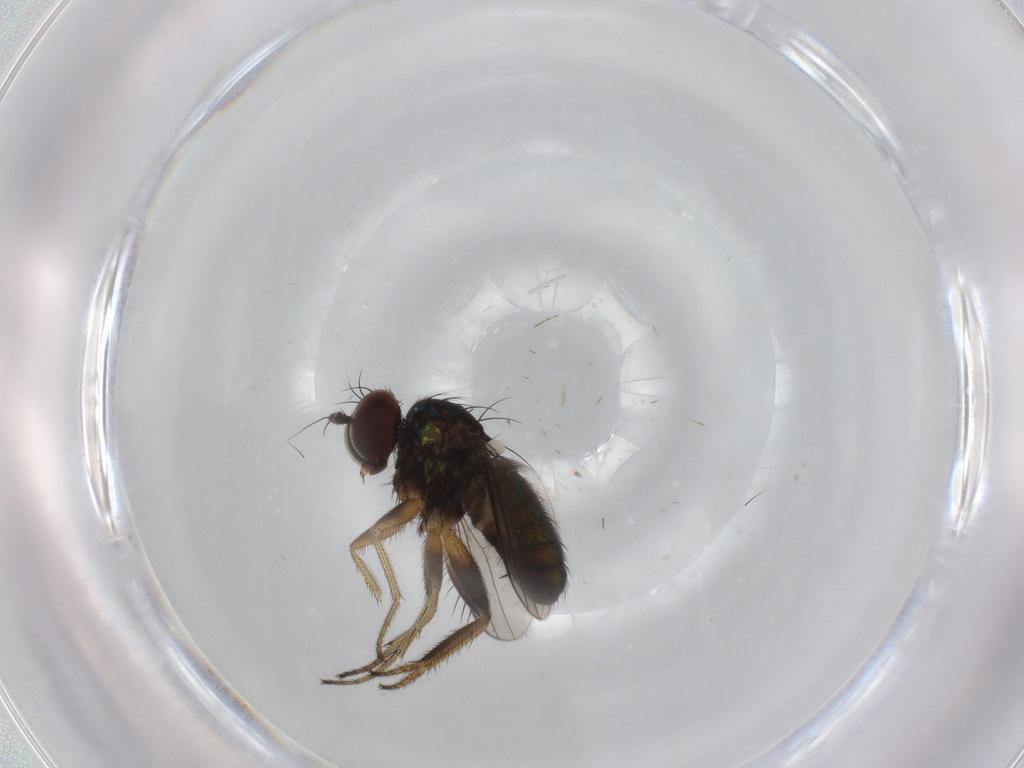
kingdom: Animalia
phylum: Arthropoda
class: Insecta
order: Diptera
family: Dolichopodidae
